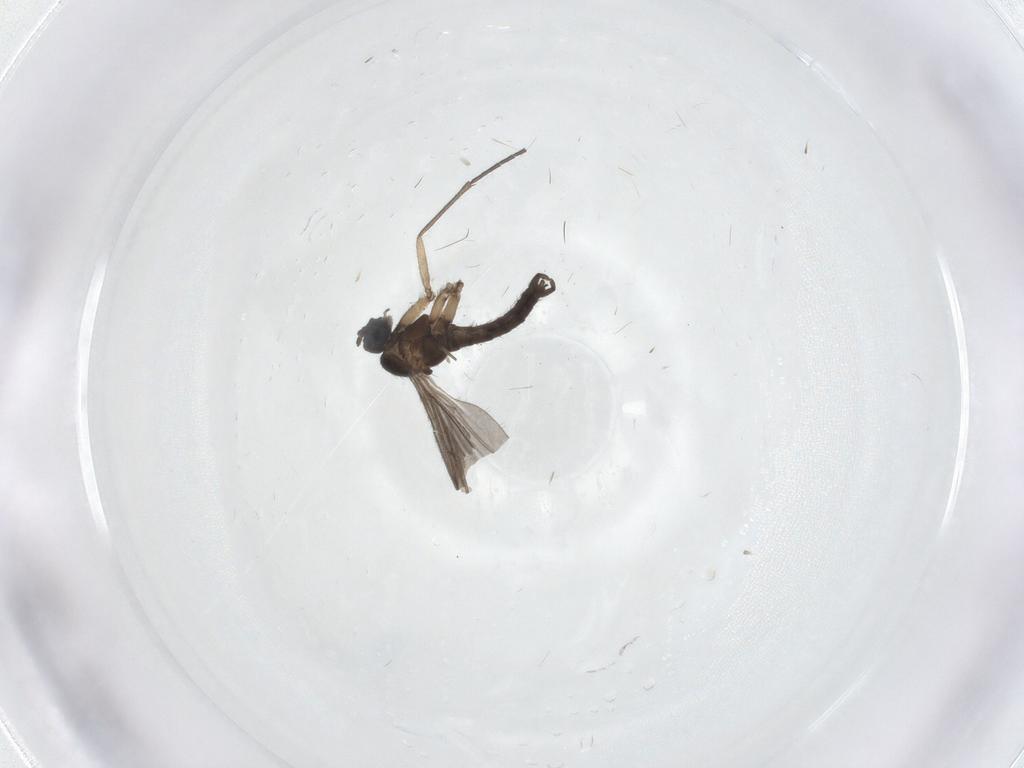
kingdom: Animalia
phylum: Arthropoda
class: Insecta
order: Diptera
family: Sciaridae
